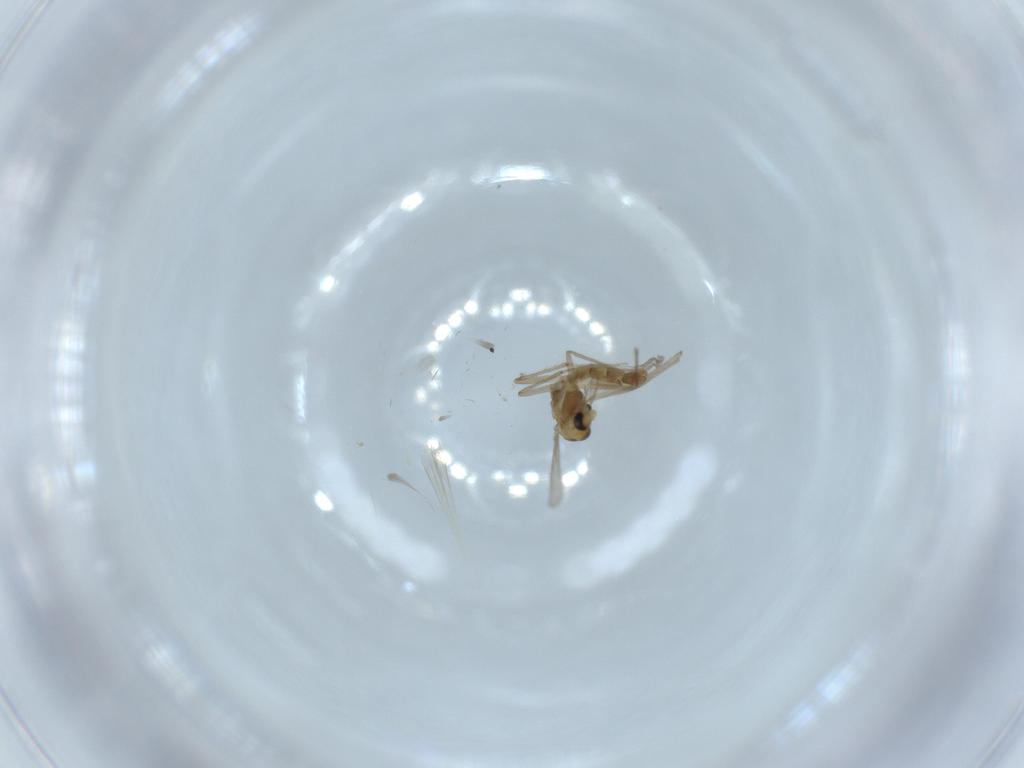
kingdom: Animalia
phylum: Arthropoda
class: Insecta
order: Diptera
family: Chironomidae
